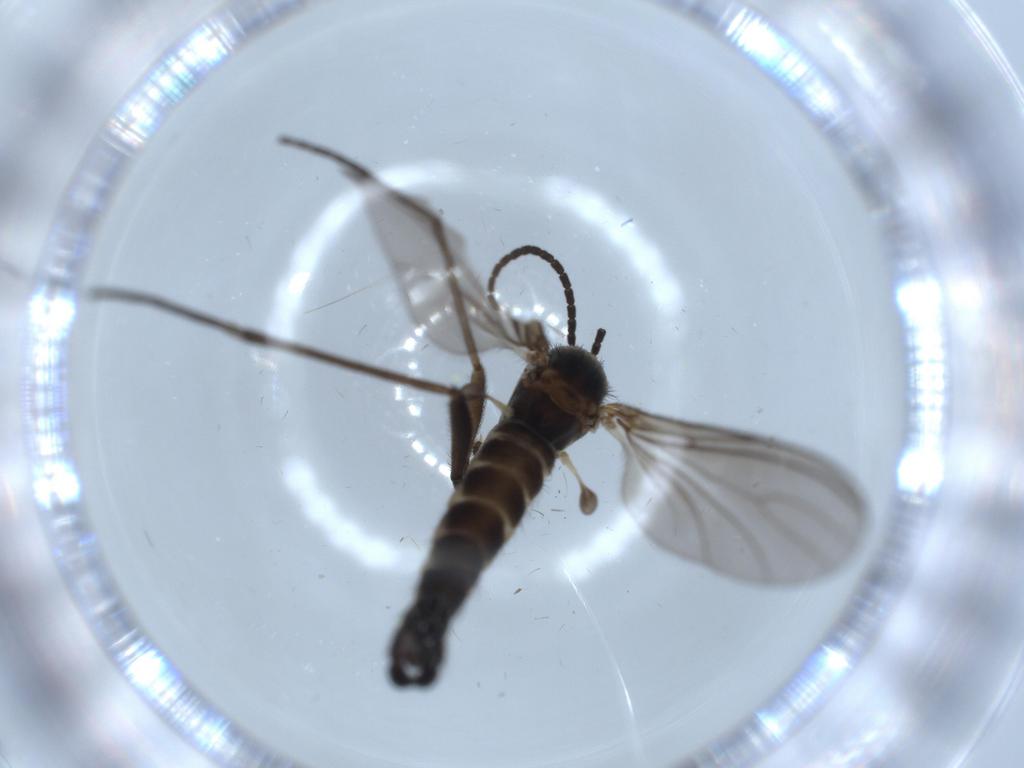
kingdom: Animalia
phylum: Arthropoda
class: Insecta
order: Diptera
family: Sciaridae
